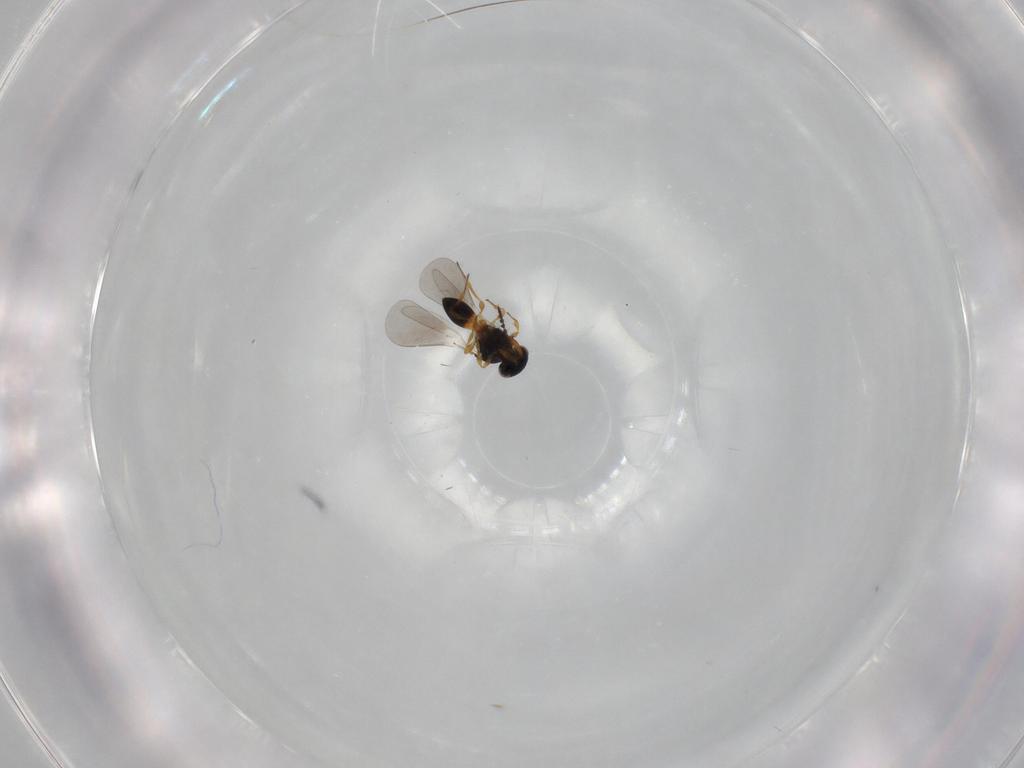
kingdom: Animalia
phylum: Arthropoda
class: Insecta
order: Hymenoptera
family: Platygastridae
